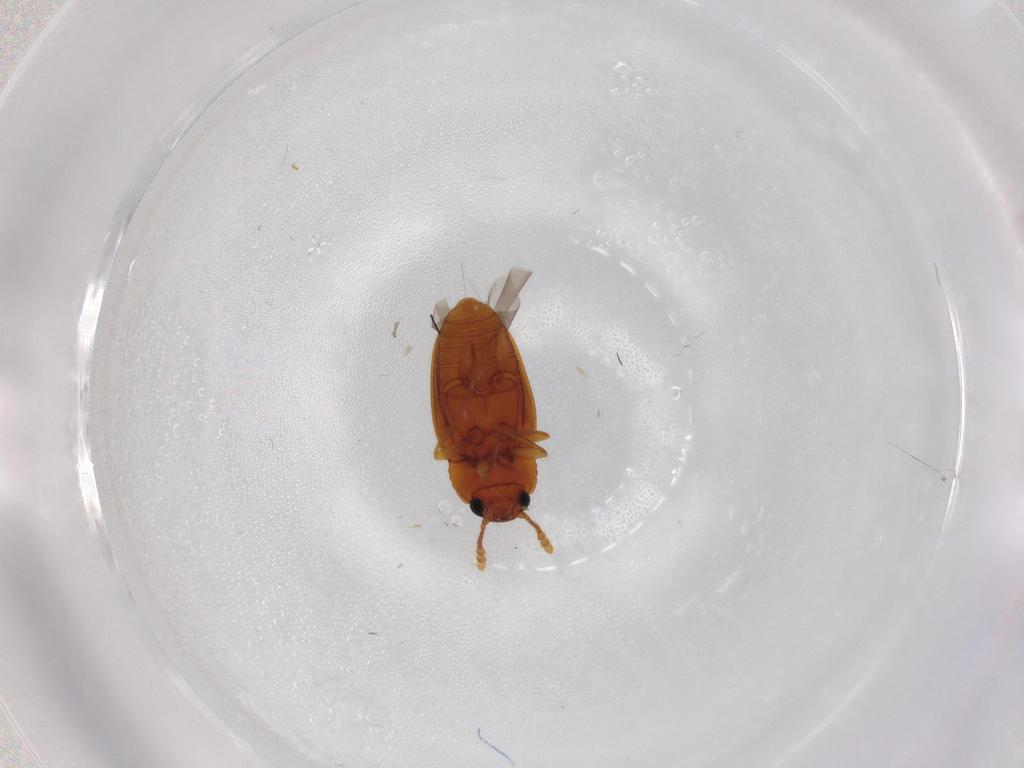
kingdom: Animalia
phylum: Arthropoda
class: Insecta
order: Coleoptera
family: Erotylidae
